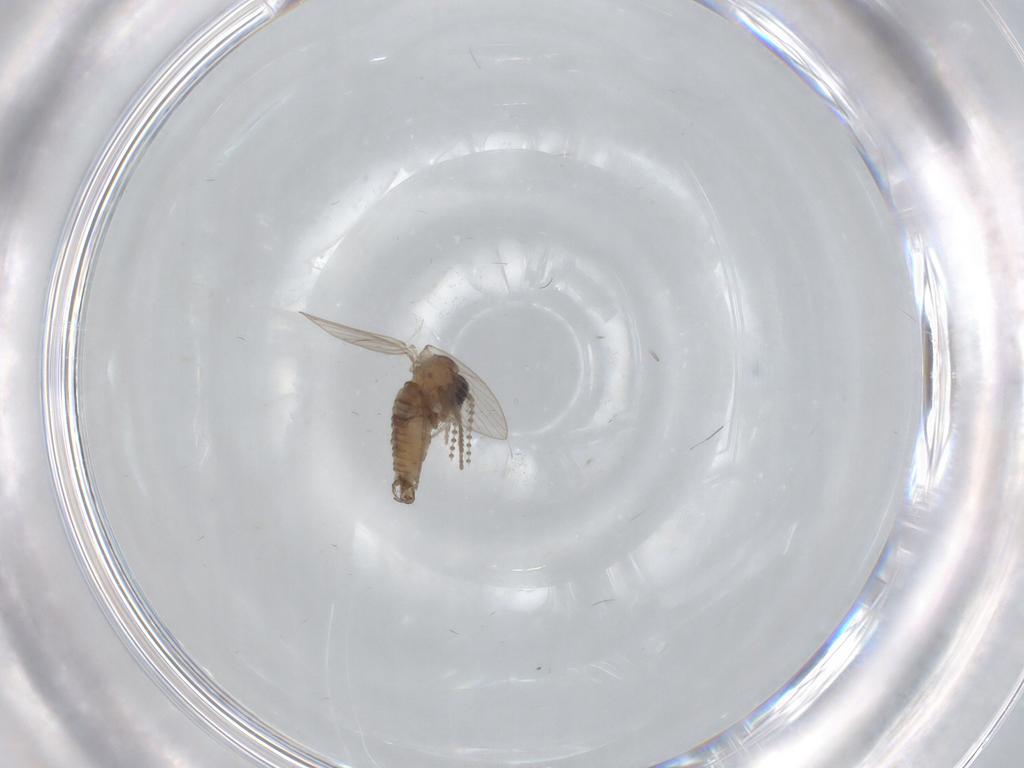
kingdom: Animalia
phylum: Arthropoda
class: Insecta
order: Diptera
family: Psychodidae
